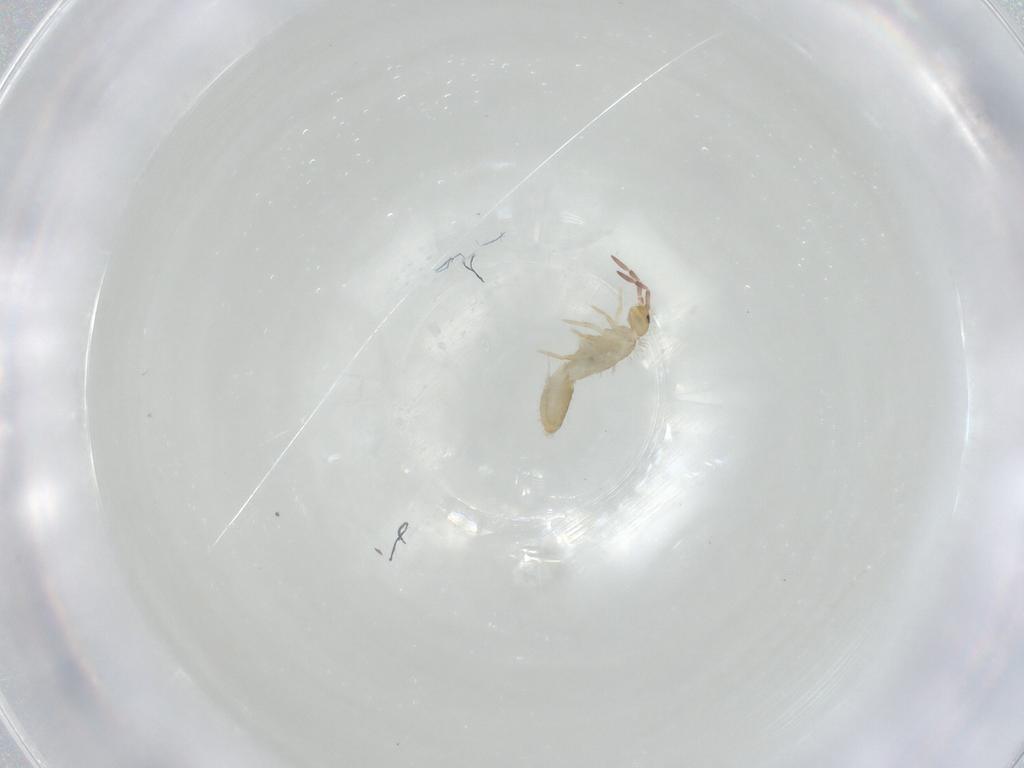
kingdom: Animalia
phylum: Arthropoda
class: Collembola
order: Entomobryomorpha
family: Entomobryidae
